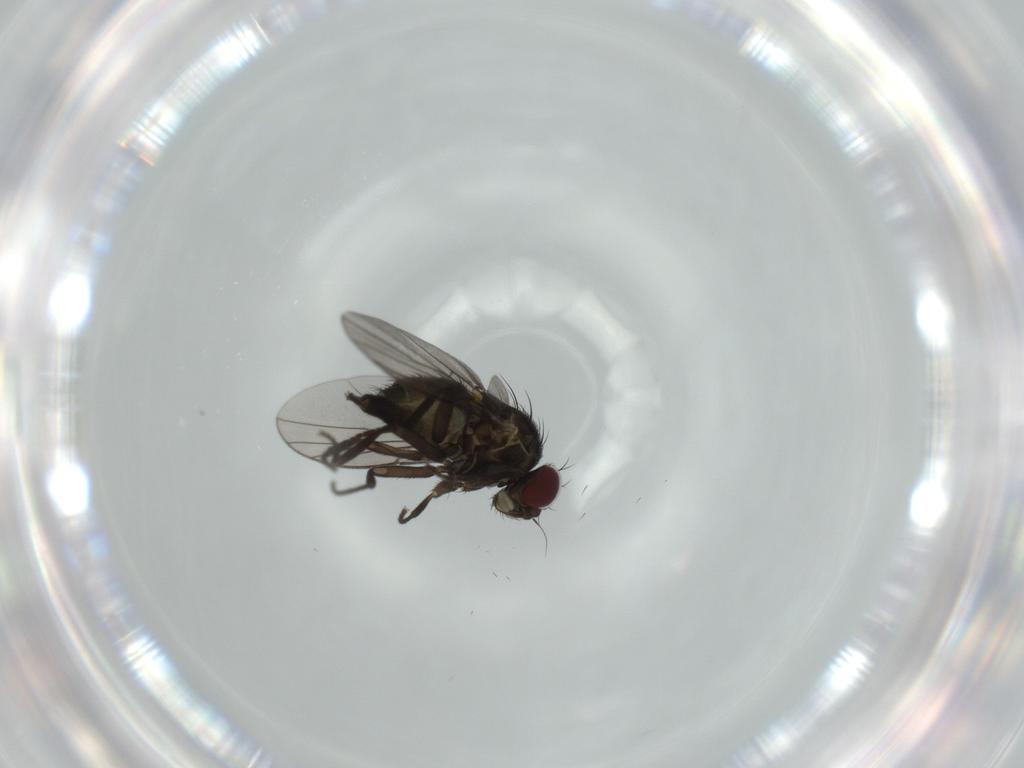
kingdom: Animalia
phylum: Arthropoda
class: Insecta
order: Diptera
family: Agromyzidae
